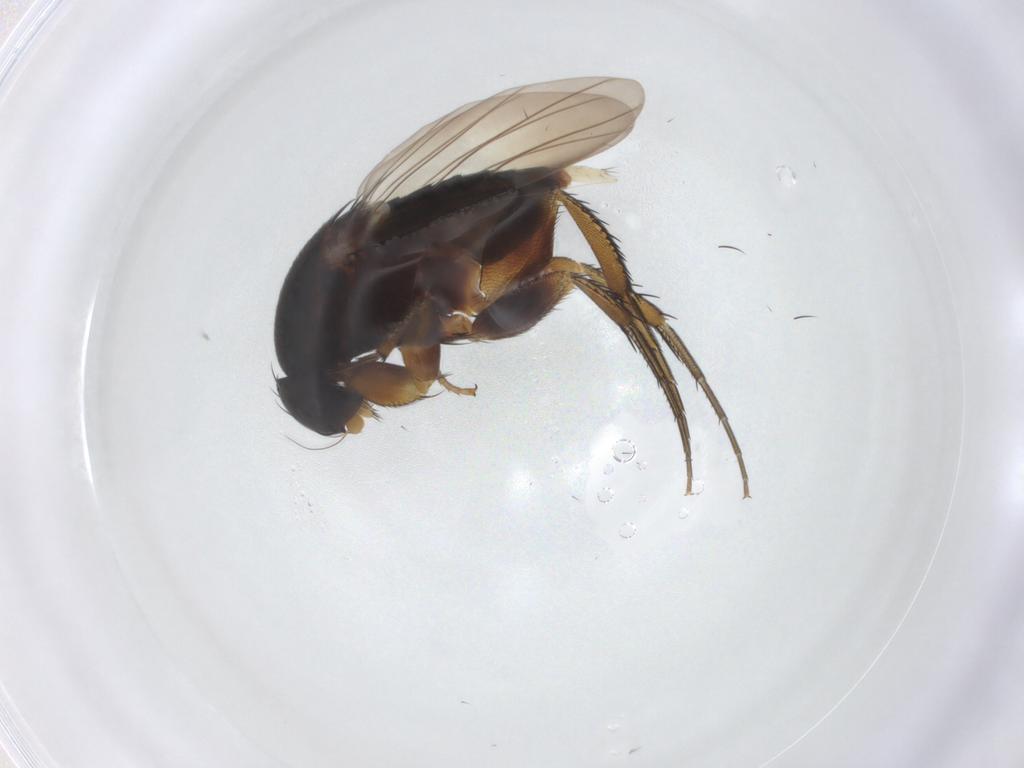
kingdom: Animalia
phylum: Arthropoda
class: Insecta
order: Diptera
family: Phoridae
